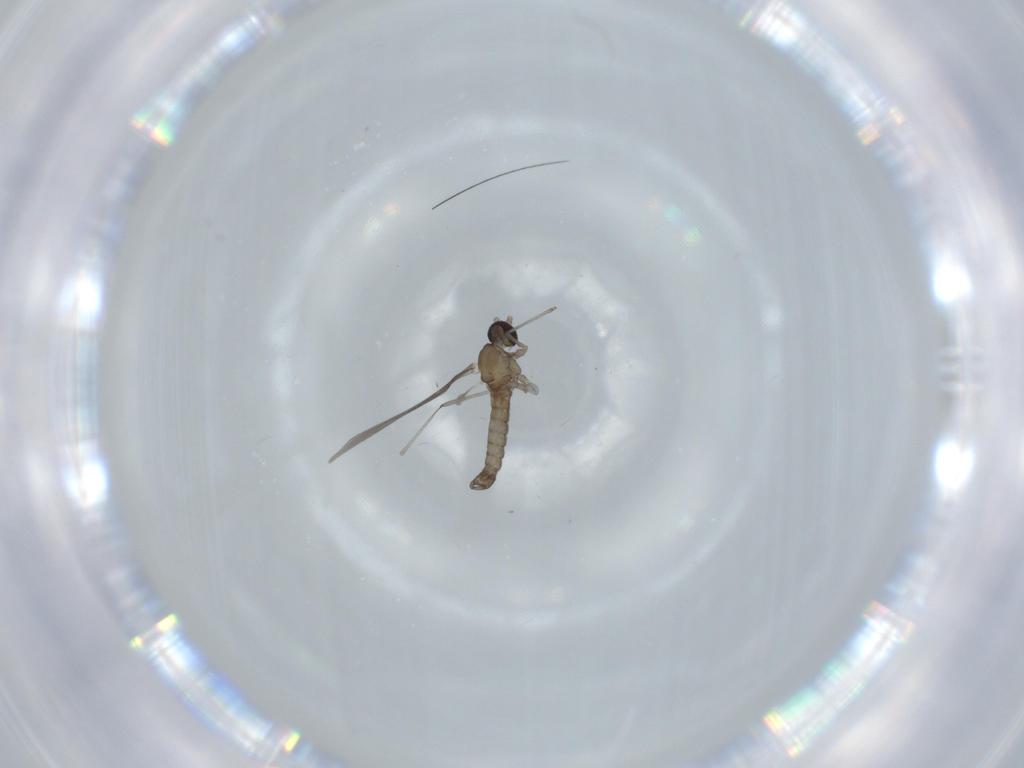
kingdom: Animalia
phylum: Arthropoda
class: Insecta
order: Diptera
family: Cecidomyiidae
